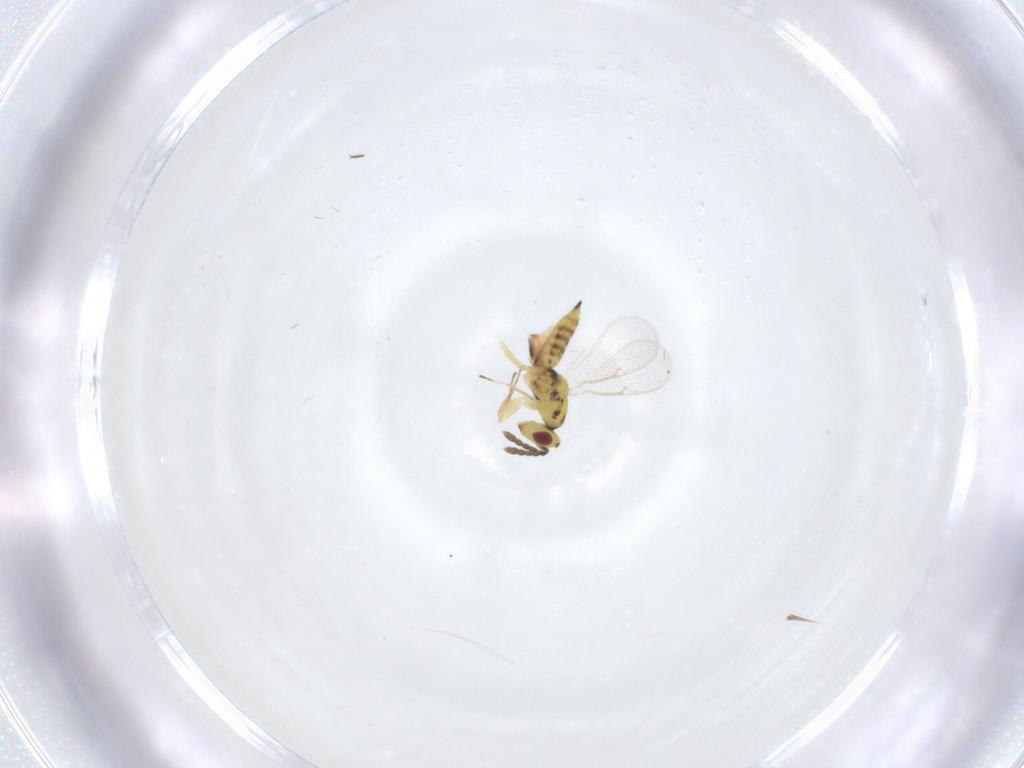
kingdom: Animalia
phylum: Arthropoda
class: Insecta
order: Hymenoptera
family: Eulophidae
